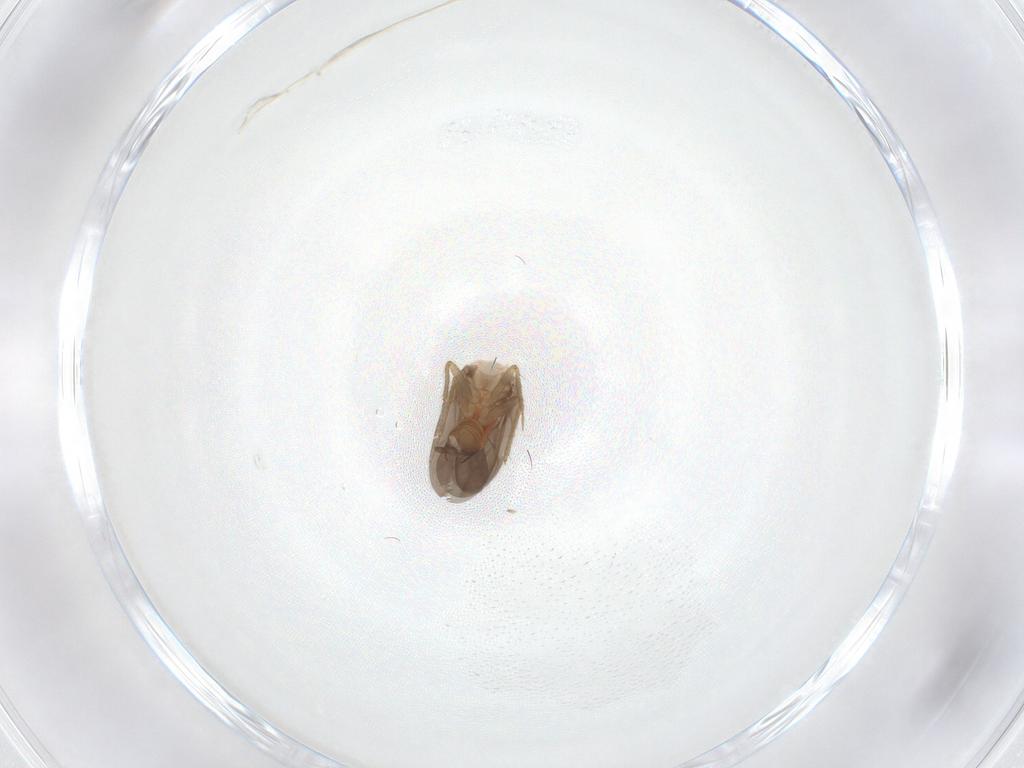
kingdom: Animalia
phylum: Arthropoda
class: Insecta
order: Hemiptera
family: Ceratocombidae
